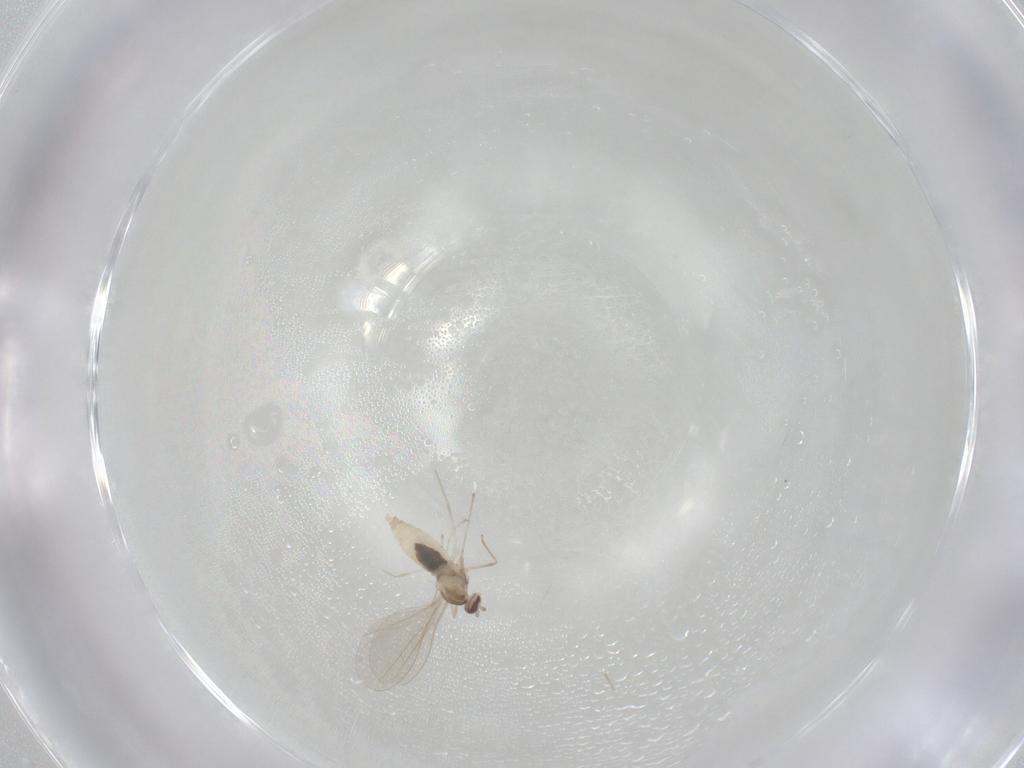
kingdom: Animalia
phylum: Arthropoda
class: Insecta
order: Diptera
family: Cecidomyiidae
